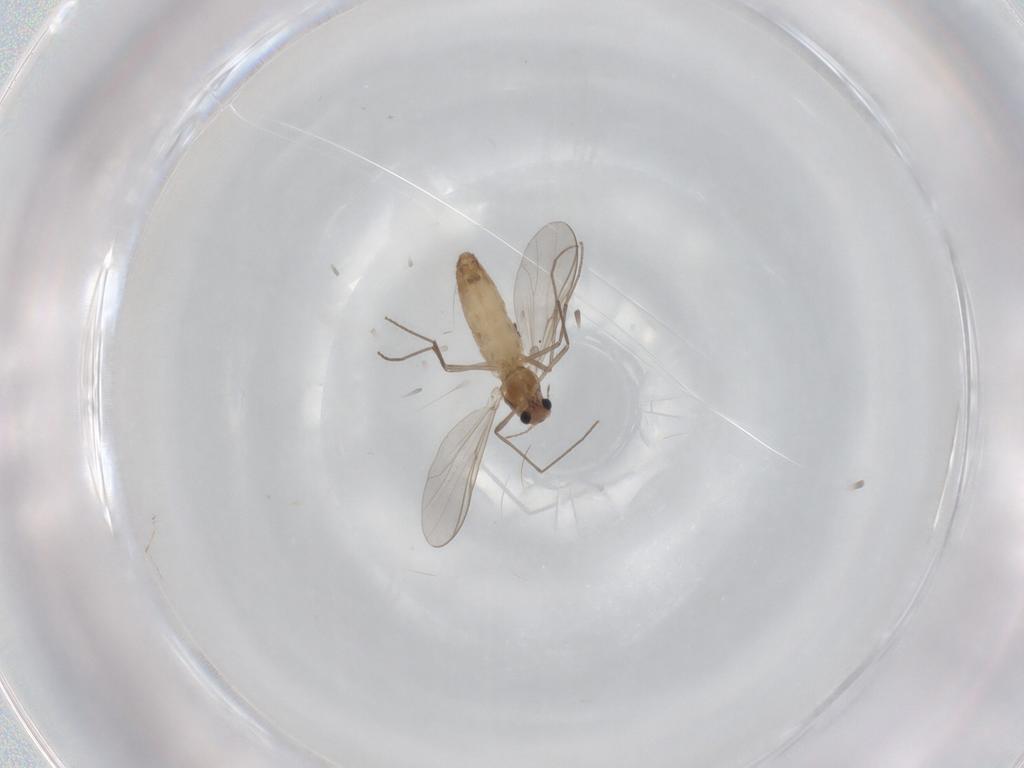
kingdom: Animalia
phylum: Arthropoda
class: Insecta
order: Diptera
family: Chironomidae
